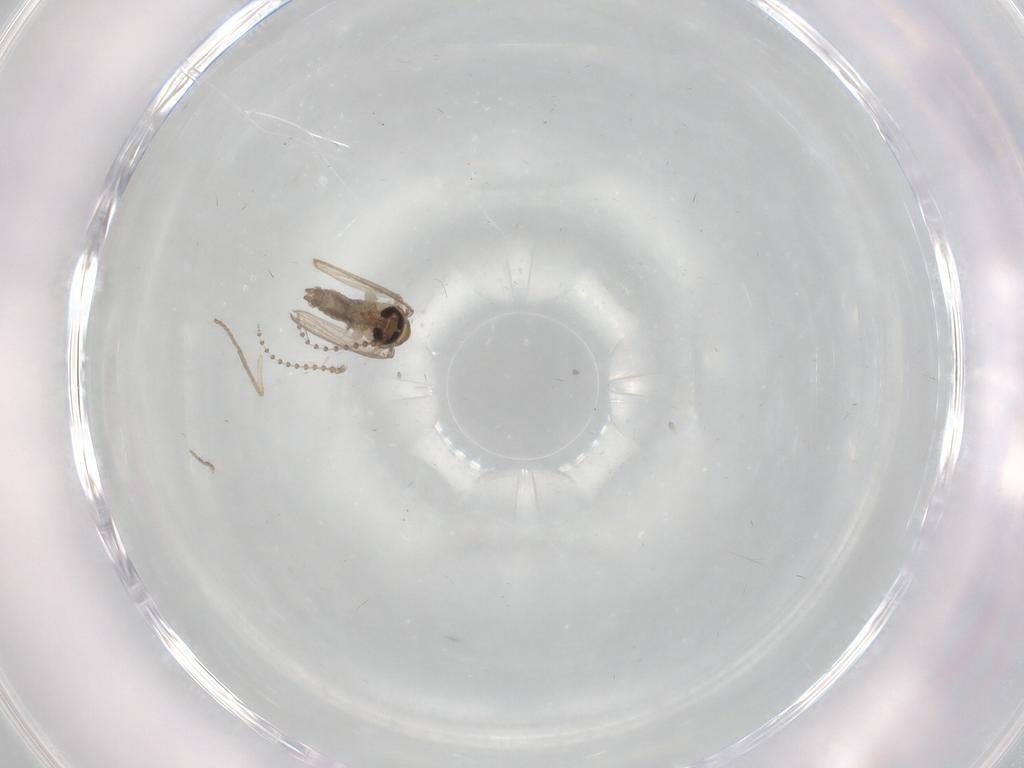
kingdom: Animalia
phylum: Arthropoda
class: Insecta
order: Diptera
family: Psychodidae
